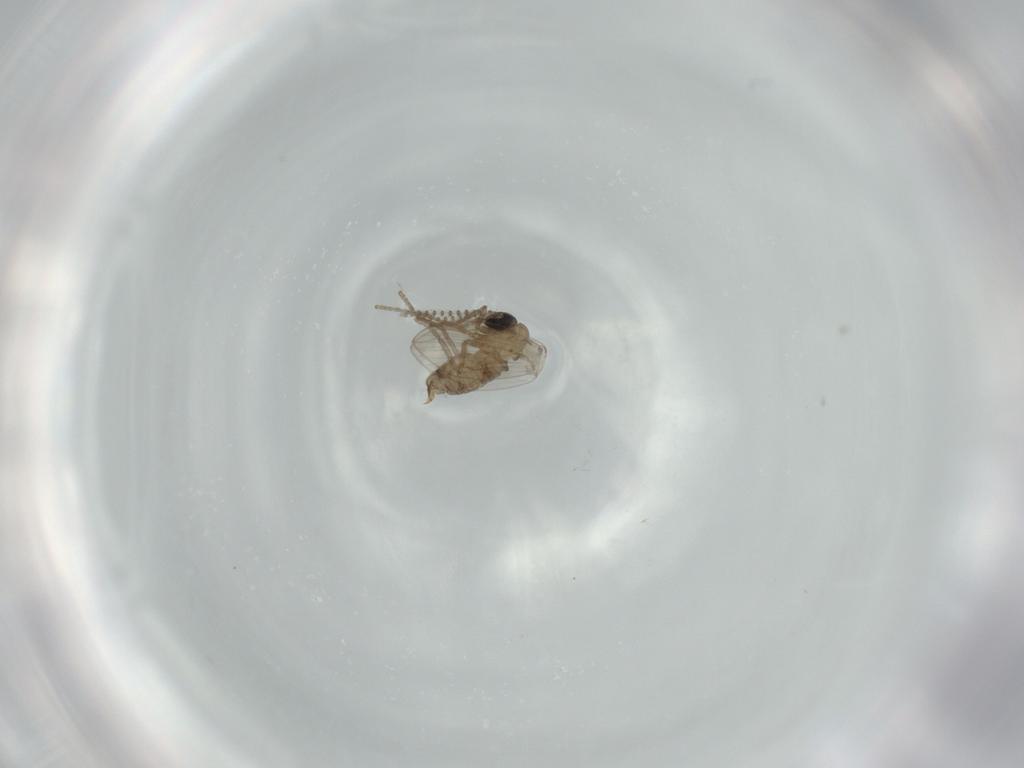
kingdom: Animalia
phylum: Arthropoda
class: Insecta
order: Diptera
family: Psychodidae
